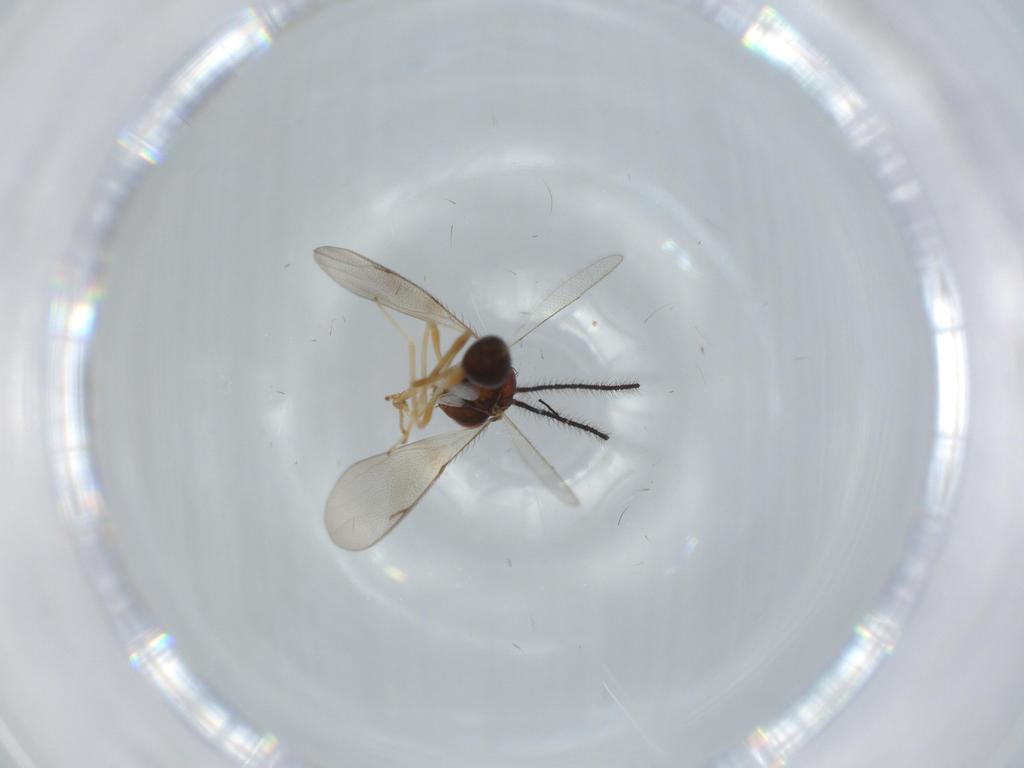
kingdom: Animalia
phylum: Arthropoda
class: Insecta
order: Hymenoptera
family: Diparidae
